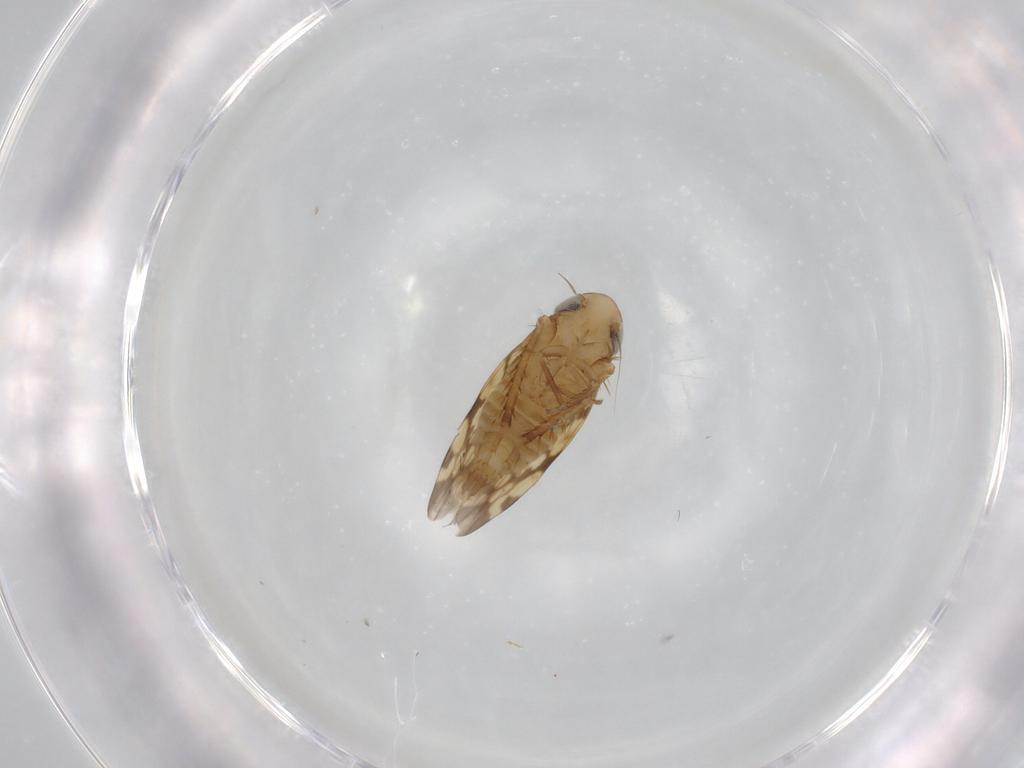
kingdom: Animalia
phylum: Arthropoda
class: Insecta
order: Hemiptera
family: Cicadellidae
